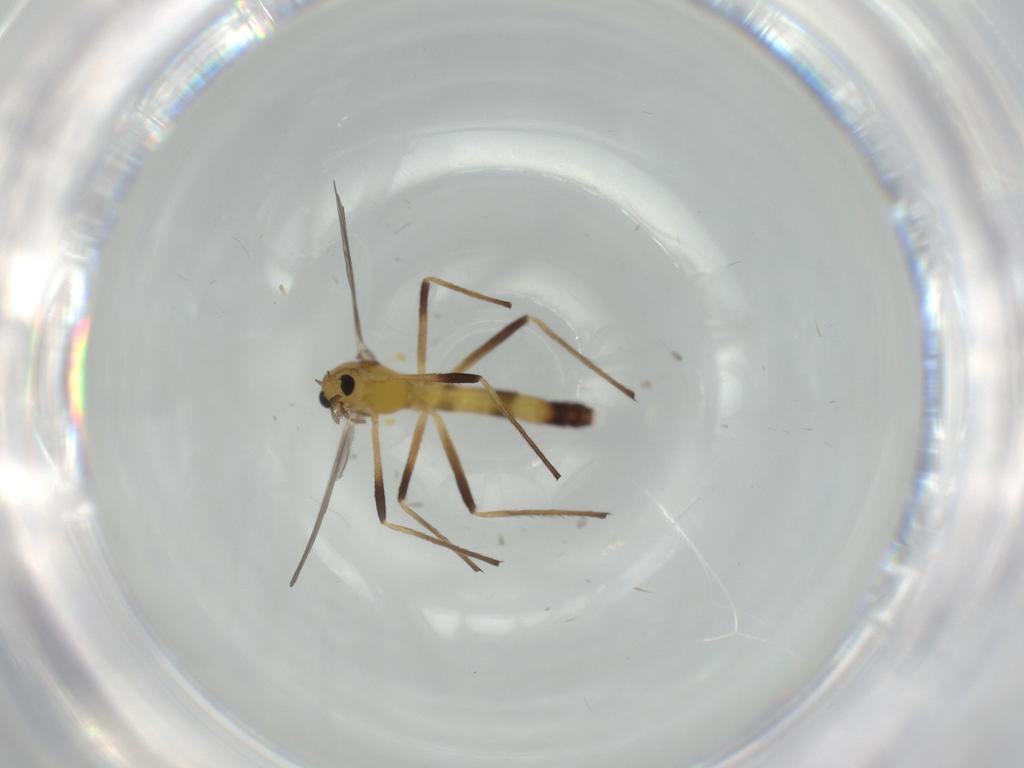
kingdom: Animalia
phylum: Arthropoda
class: Insecta
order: Diptera
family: Chironomidae
